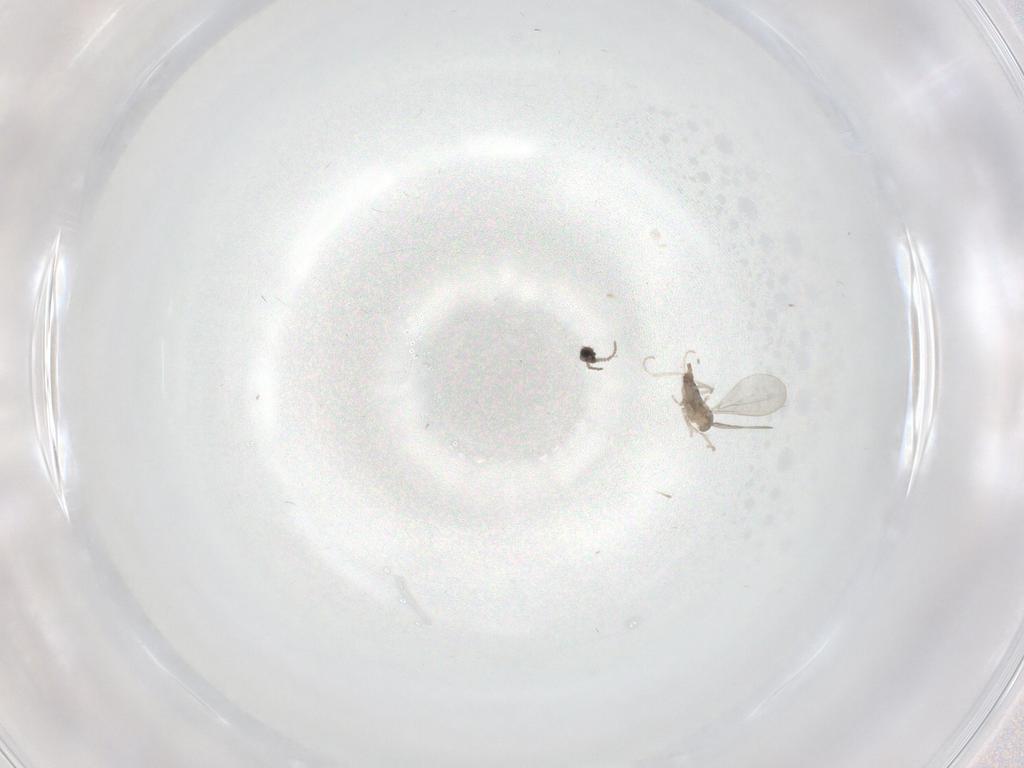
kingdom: Animalia
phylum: Arthropoda
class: Insecta
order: Diptera
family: Cecidomyiidae
